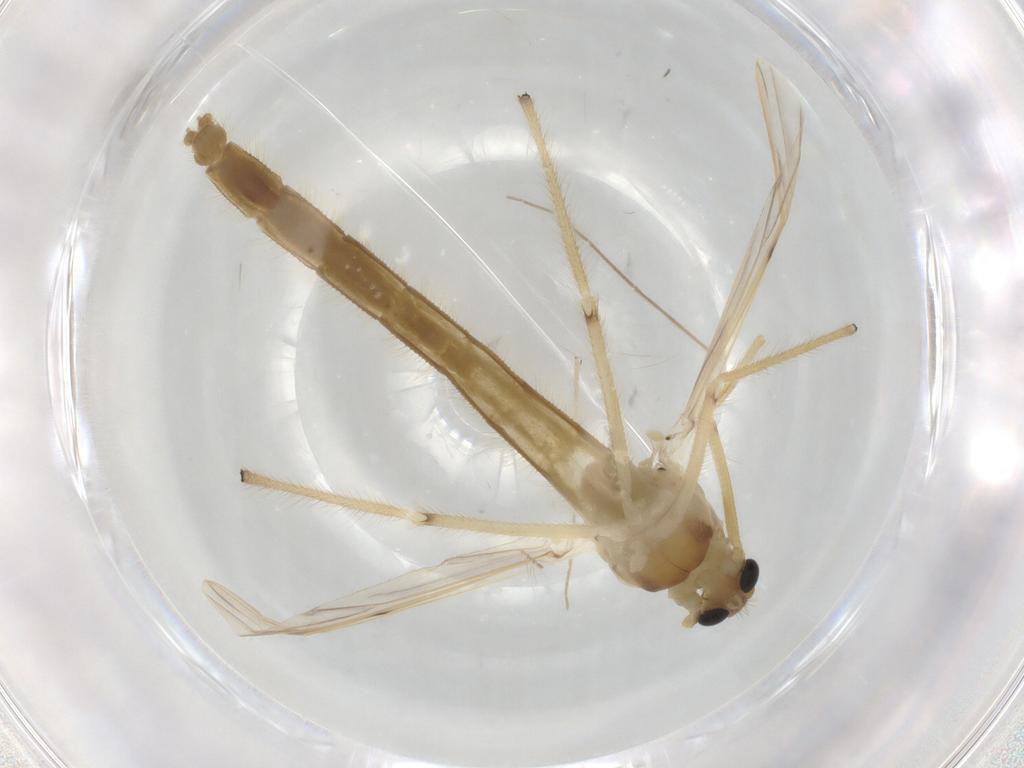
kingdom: Animalia
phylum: Arthropoda
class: Insecta
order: Diptera
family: Chironomidae
